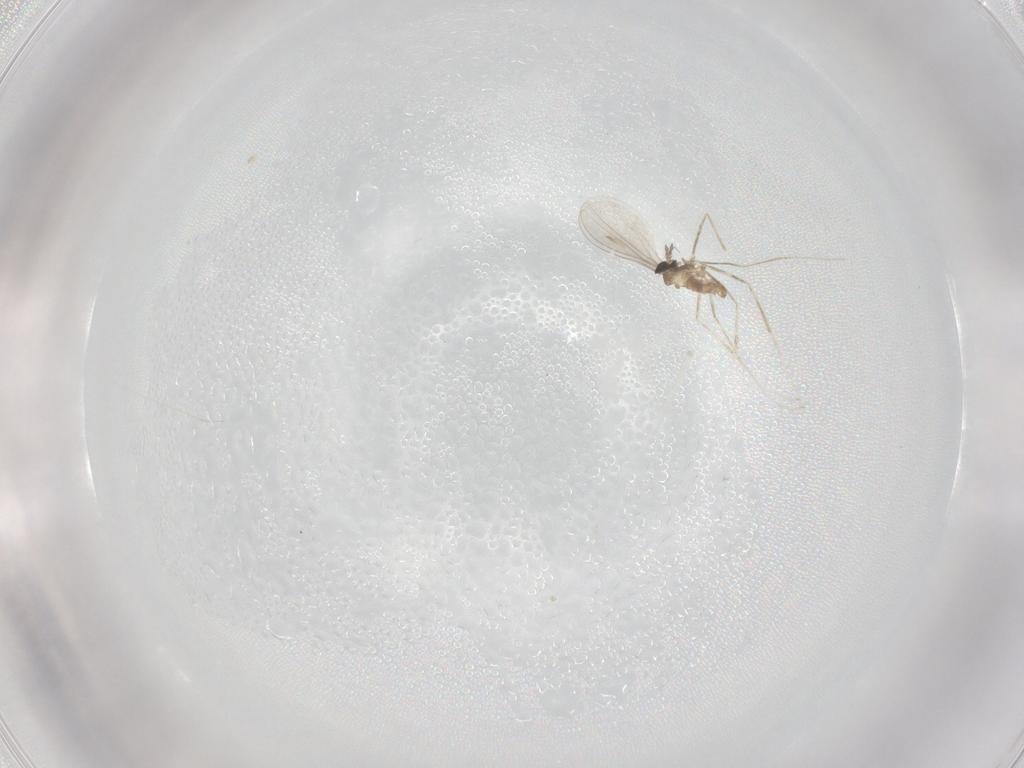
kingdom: Animalia
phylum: Arthropoda
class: Insecta
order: Diptera
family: Cecidomyiidae
